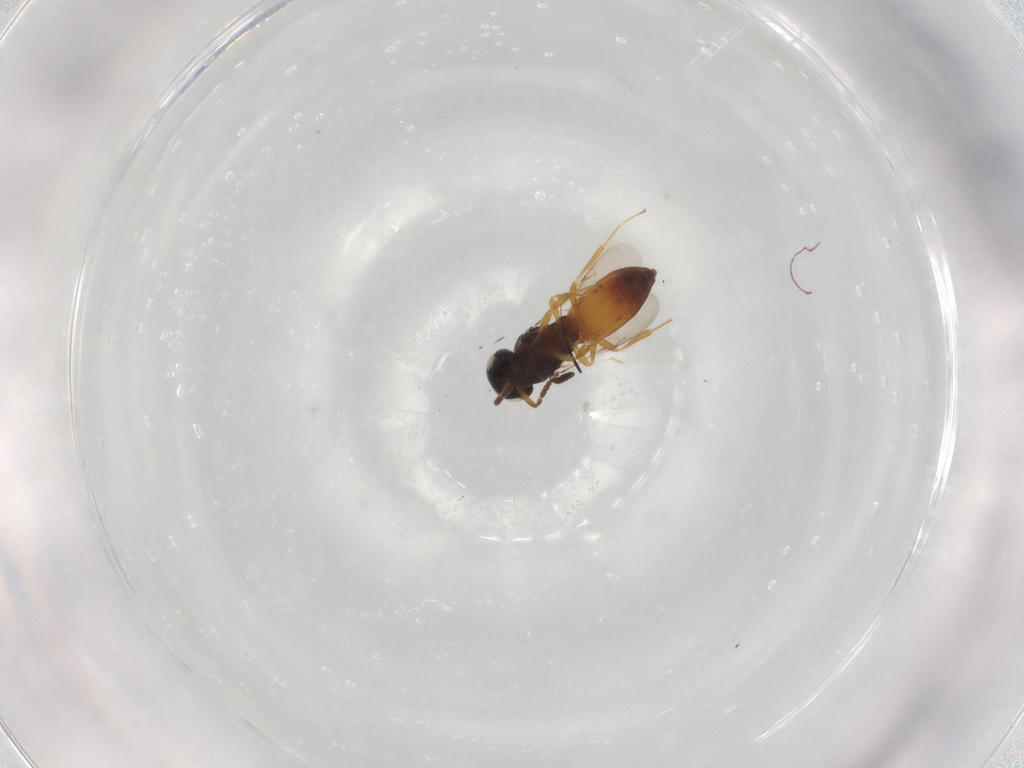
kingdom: Animalia
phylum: Arthropoda
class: Insecta
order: Hymenoptera
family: Scelionidae
